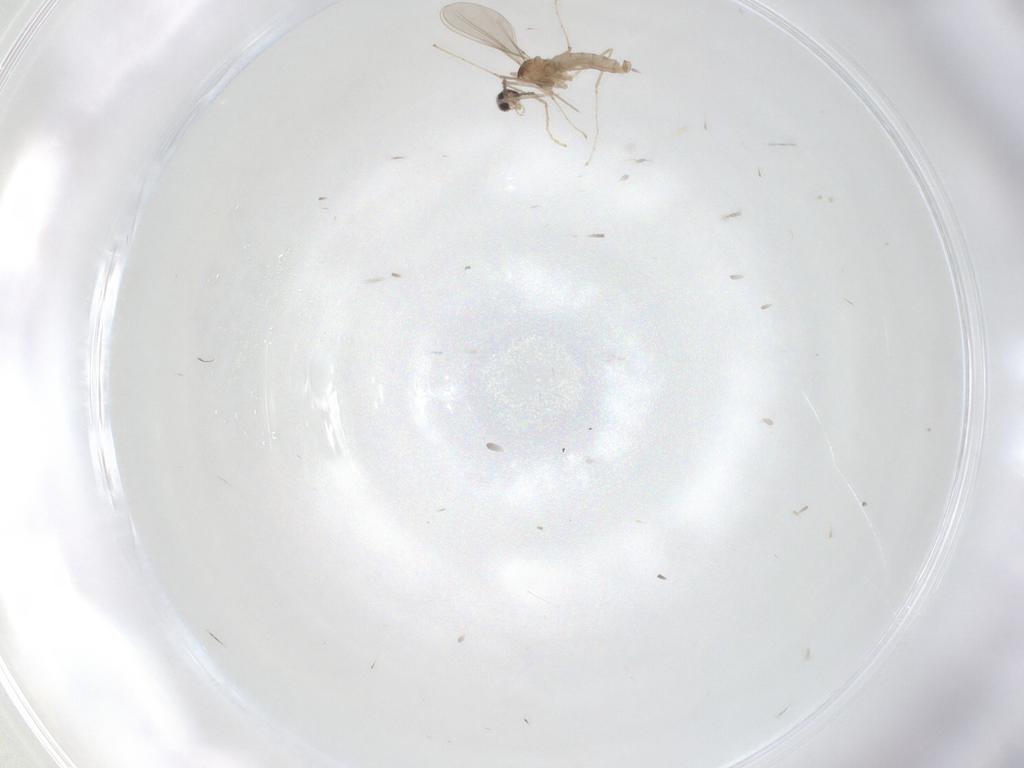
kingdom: Animalia
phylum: Arthropoda
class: Insecta
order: Diptera
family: Cecidomyiidae
